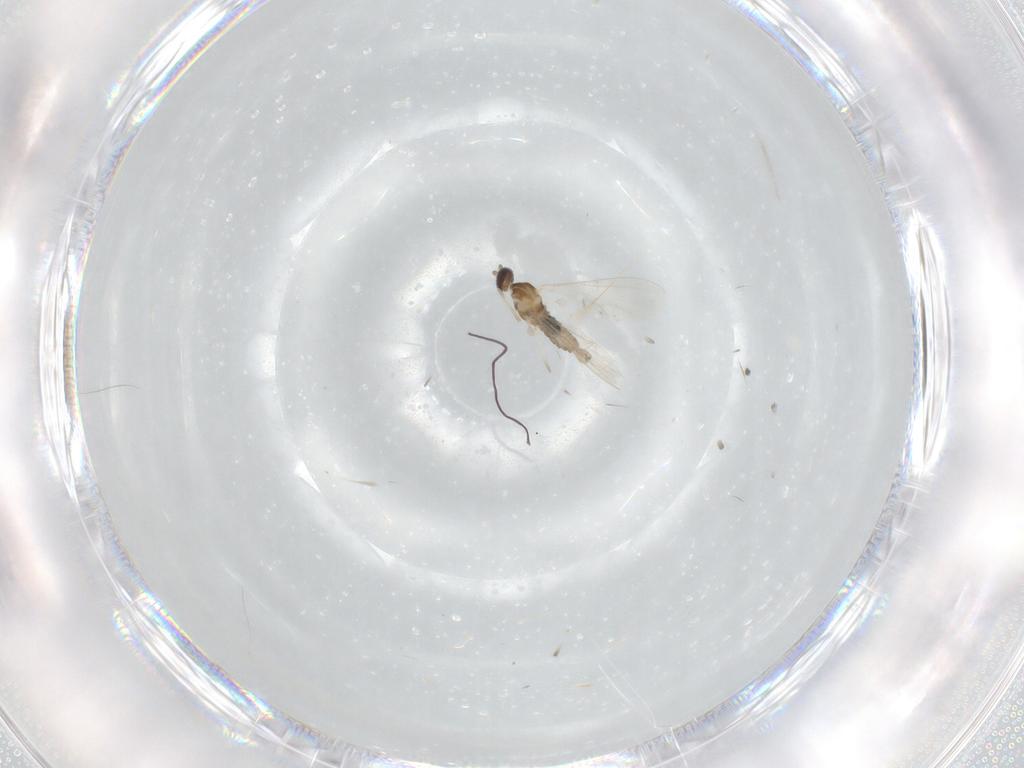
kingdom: Animalia
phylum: Arthropoda
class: Insecta
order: Diptera
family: Cecidomyiidae
